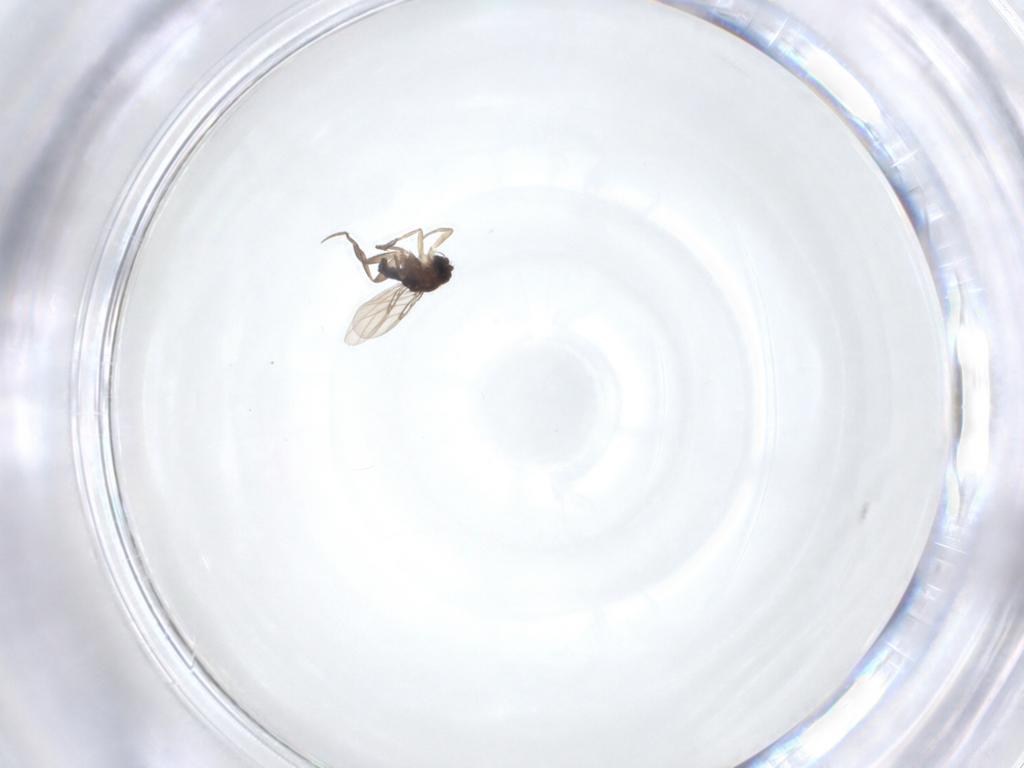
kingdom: Animalia
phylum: Arthropoda
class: Insecta
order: Diptera
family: Phoridae
